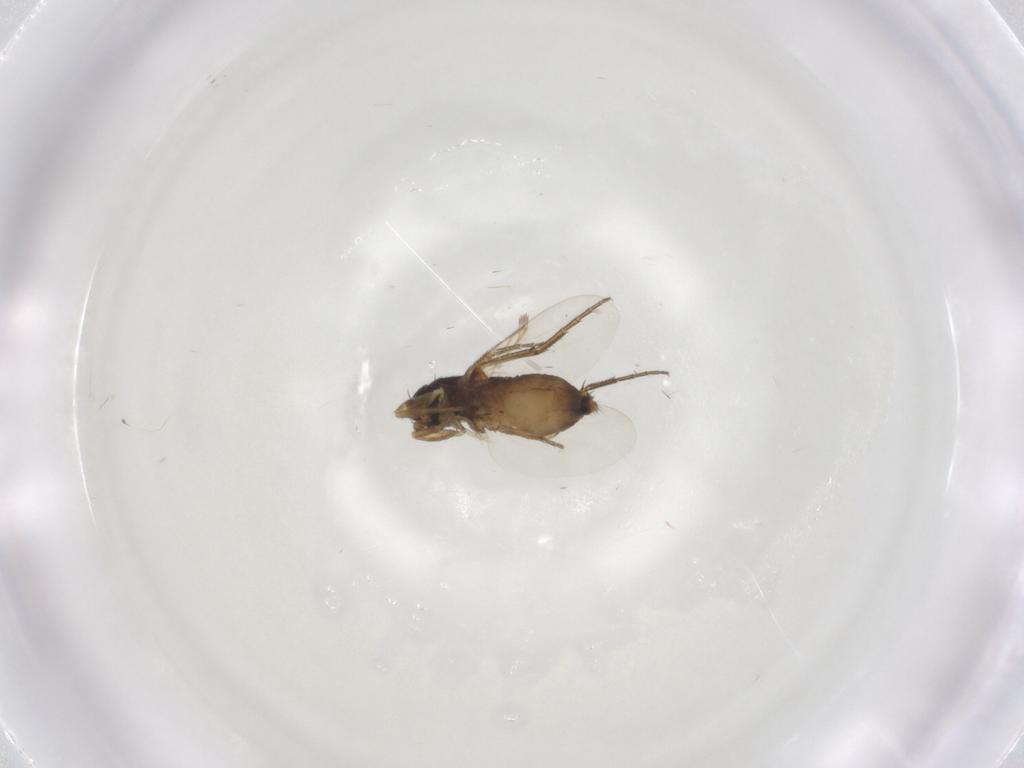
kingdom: Animalia
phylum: Arthropoda
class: Insecta
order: Diptera
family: Phoridae
